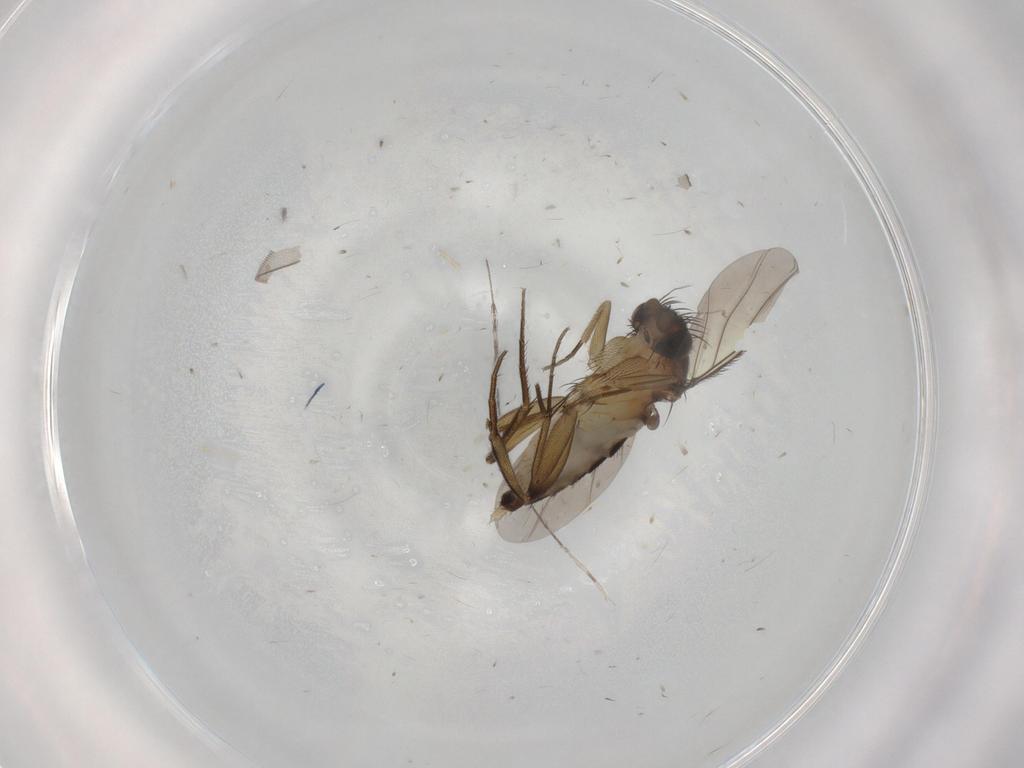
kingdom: Animalia
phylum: Arthropoda
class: Insecta
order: Diptera
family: Phoridae
